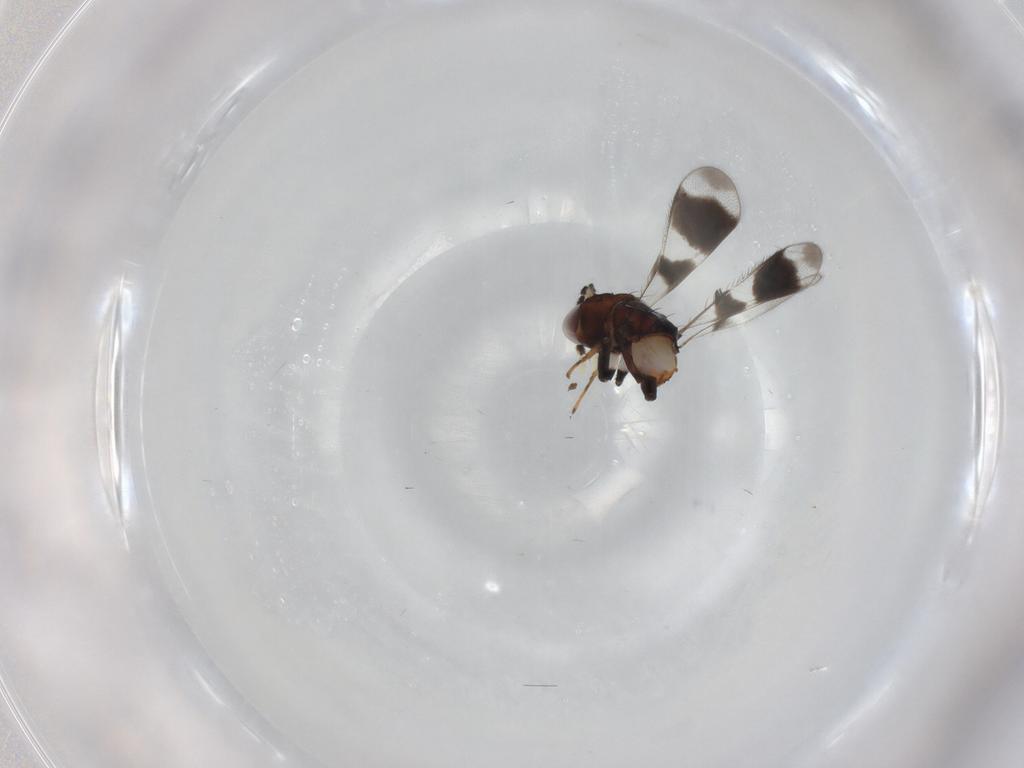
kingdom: Animalia
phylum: Arthropoda
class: Insecta
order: Hymenoptera
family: Eulophidae
